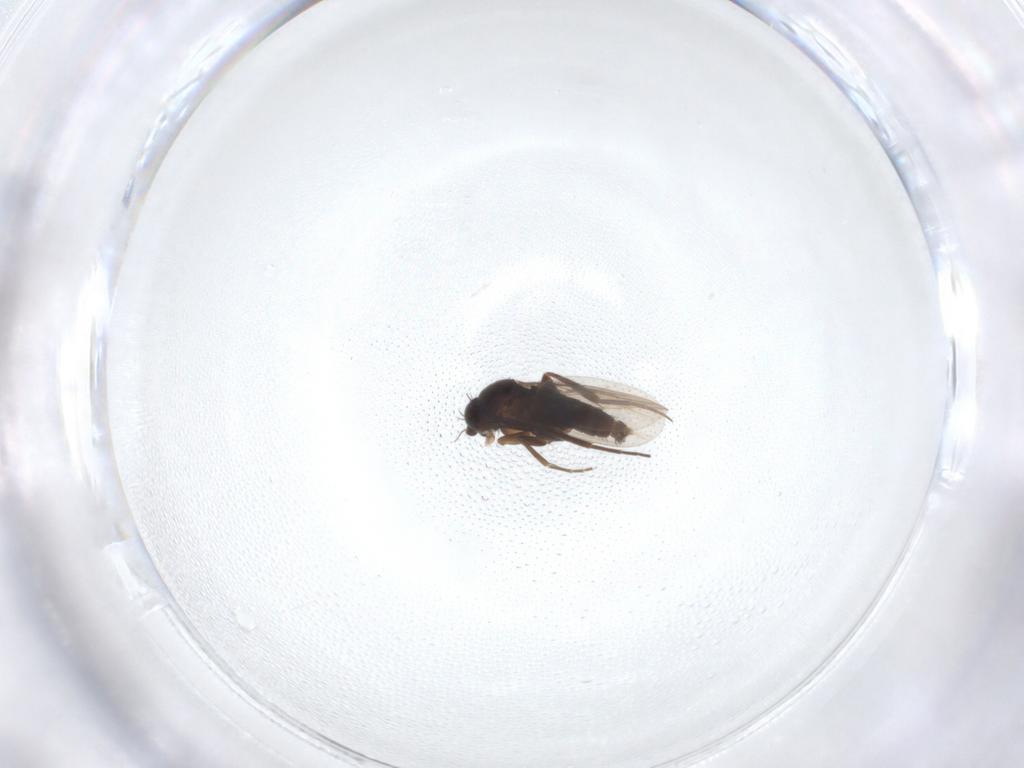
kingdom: Animalia
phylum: Arthropoda
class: Insecta
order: Diptera
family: Phoridae
